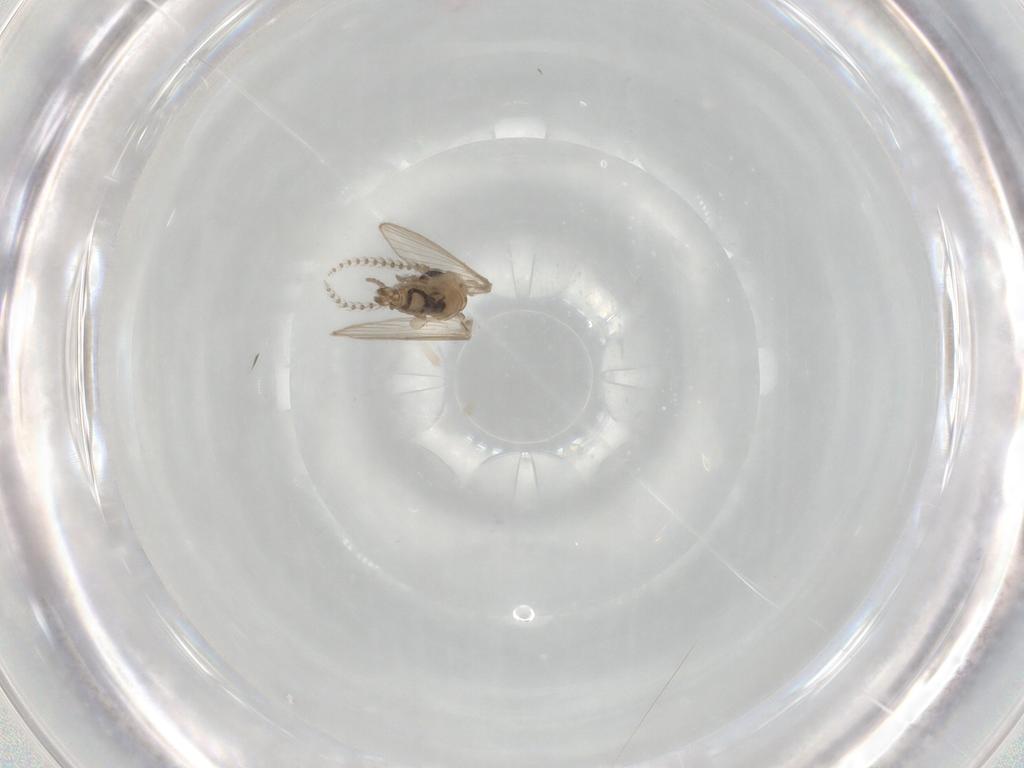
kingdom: Animalia
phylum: Arthropoda
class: Insecta
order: Diptera
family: Psychodidae
